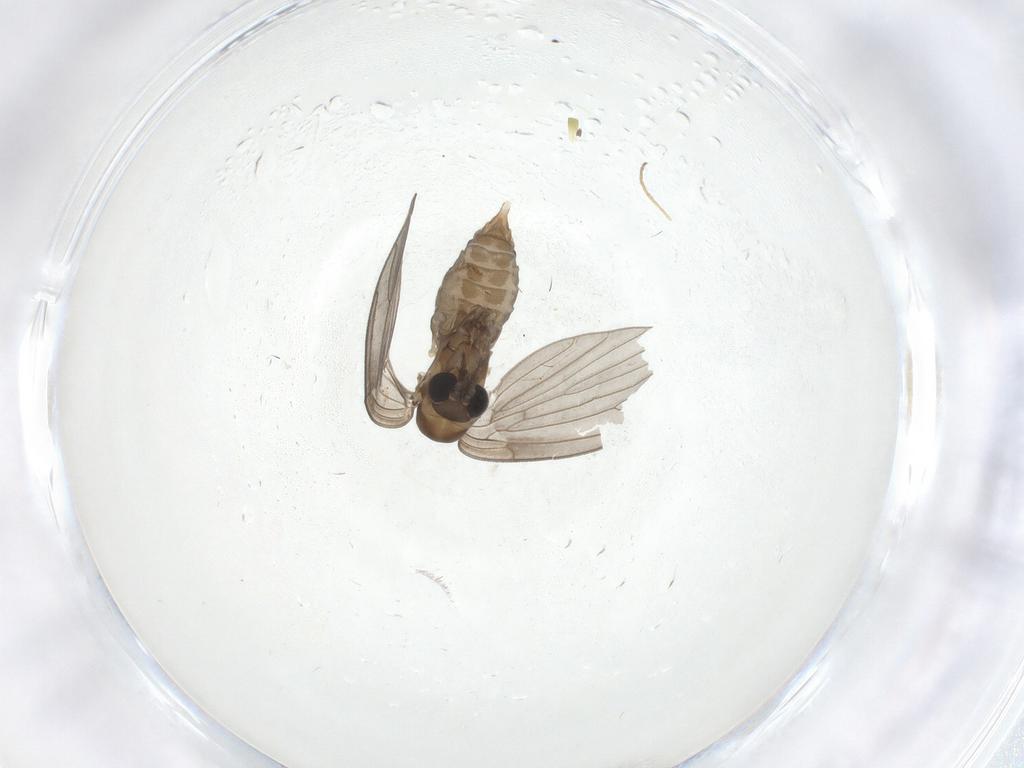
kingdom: Animalia
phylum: Arthropoda
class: Insecta
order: Diptera
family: Psychodidae
